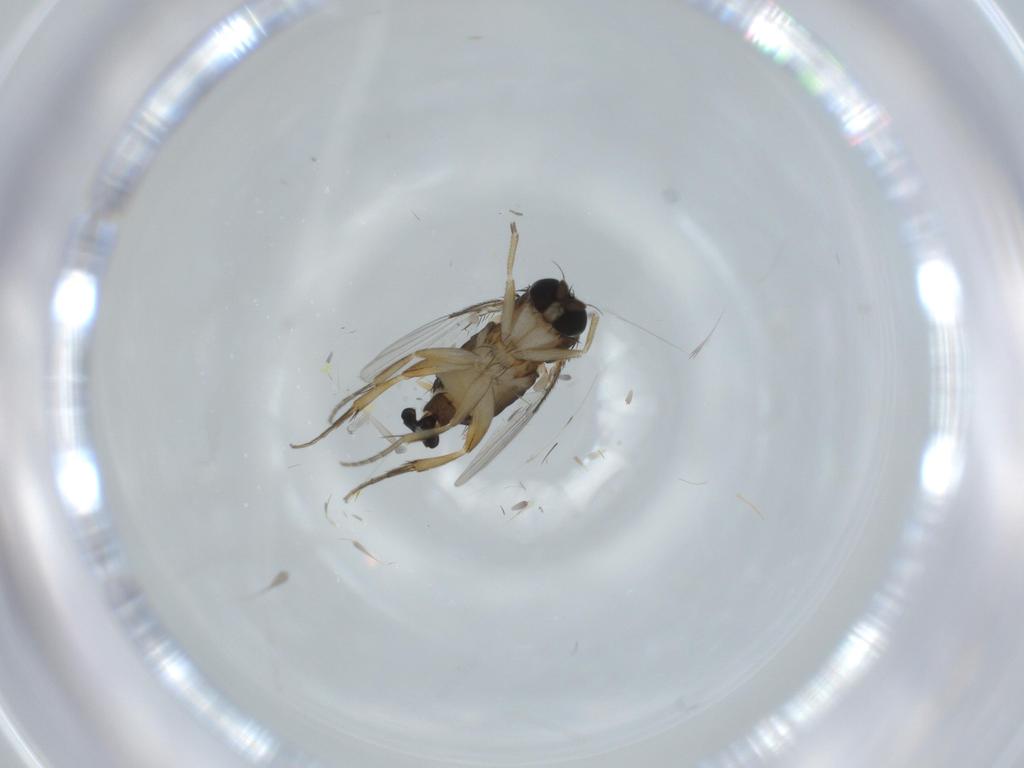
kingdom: Animalia
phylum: Arthropoda
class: Insecta
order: Diptera
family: Phoridae
